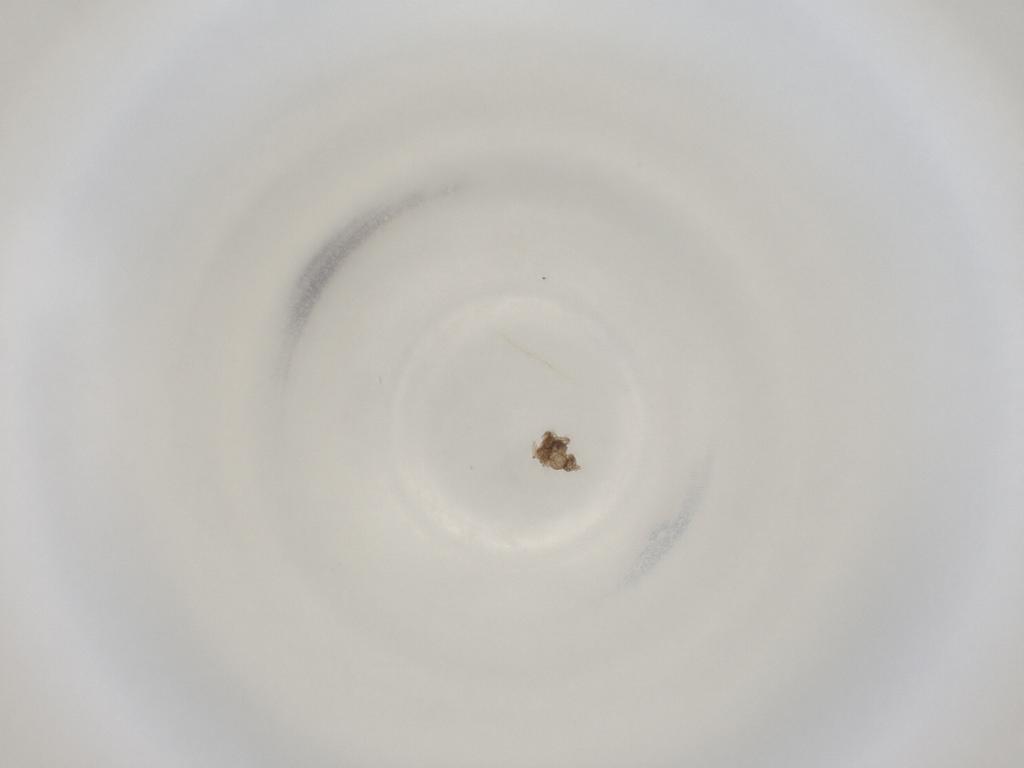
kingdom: Animalia
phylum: Arthropoda
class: Insecta
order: Diptera
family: Cecidomyiidae
